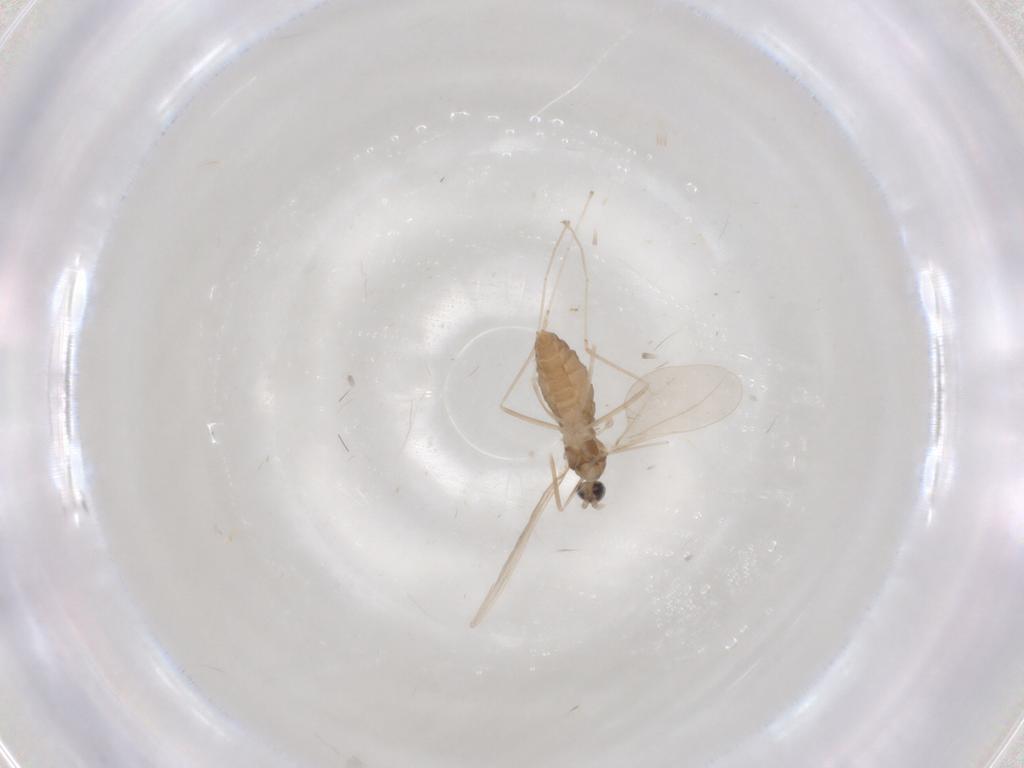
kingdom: Animalia
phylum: Arthropoda
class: Insecta
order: Diptera
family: Cecidomyiidae
